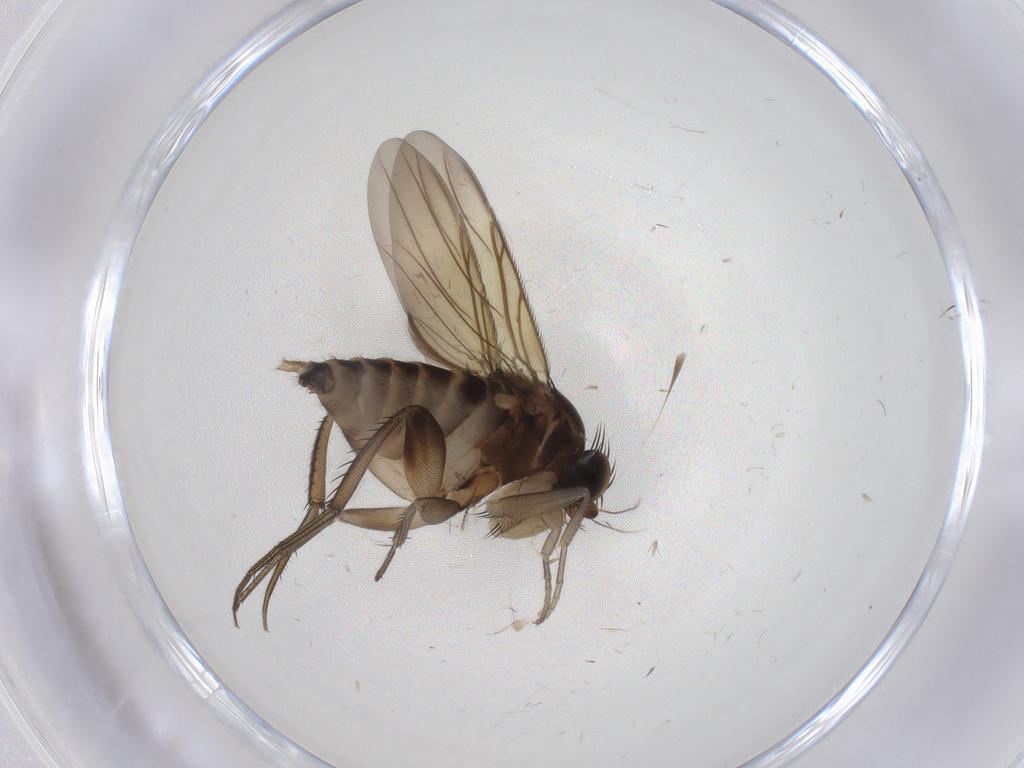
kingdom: Animalia
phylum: Arthropoda
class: Insecta
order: Diptera
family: Phoridae
